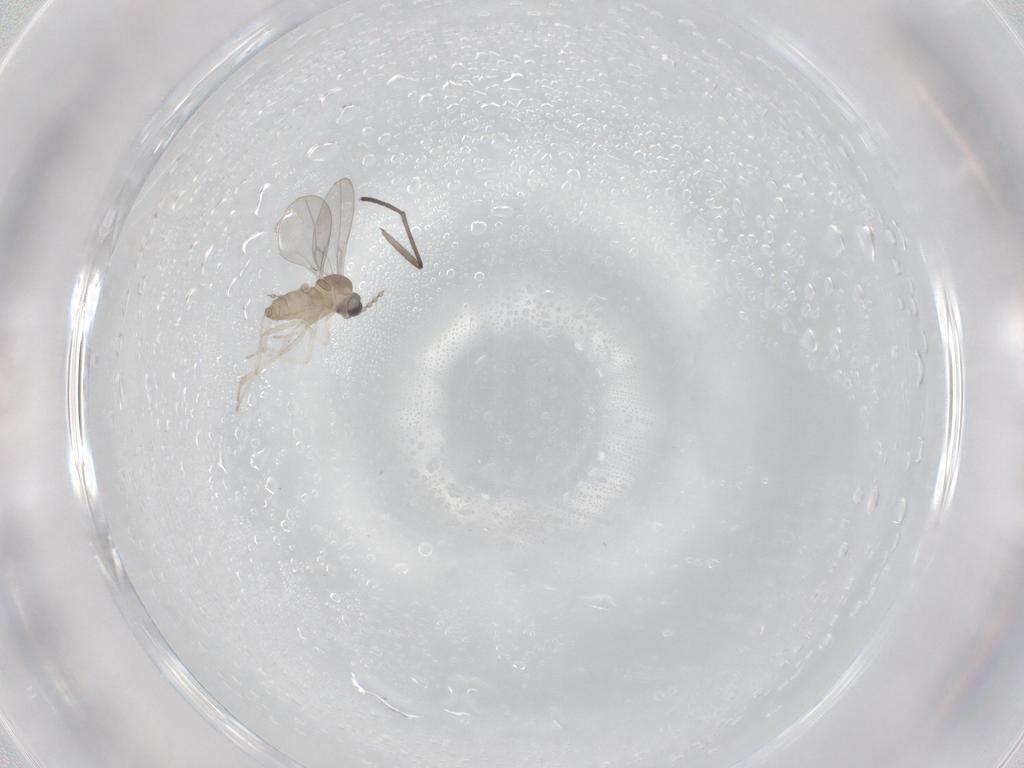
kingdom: Animalia
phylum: Arthropoda
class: Insecta
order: Diptera
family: Cecidomyiidae
